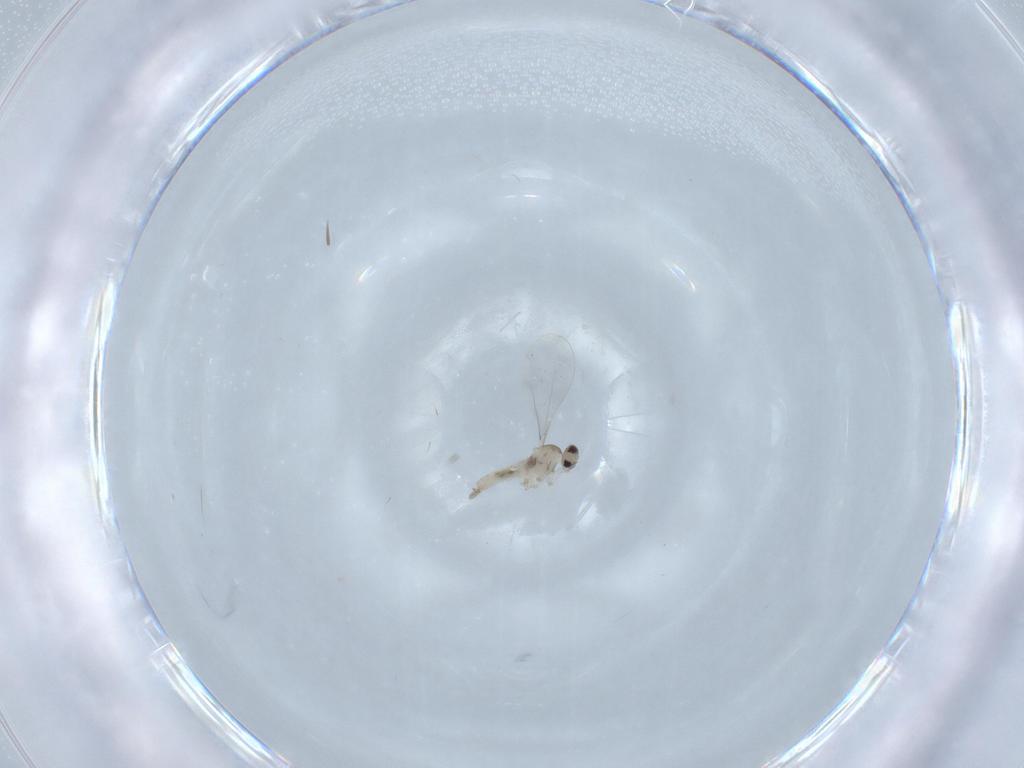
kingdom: Animalia
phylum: Arthropoda
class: Insecta
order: Diptera
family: Cecidomyiidae
